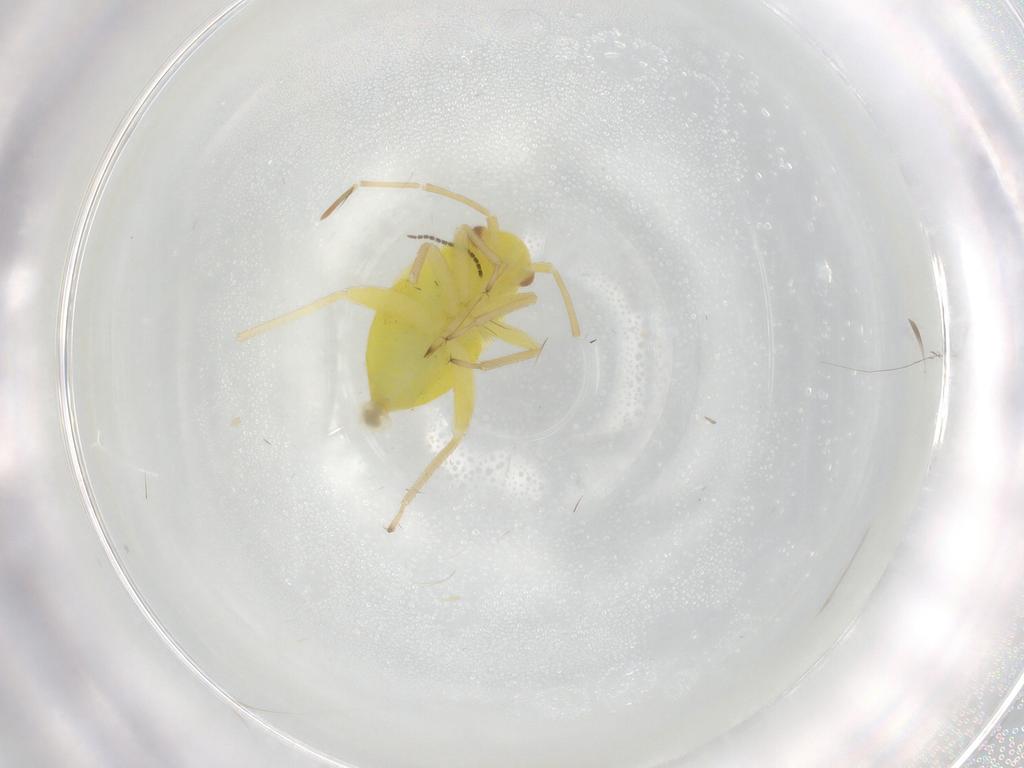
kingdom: Animalia
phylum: Arthropoda
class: Insecta
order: Hemiptera
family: Miridae
